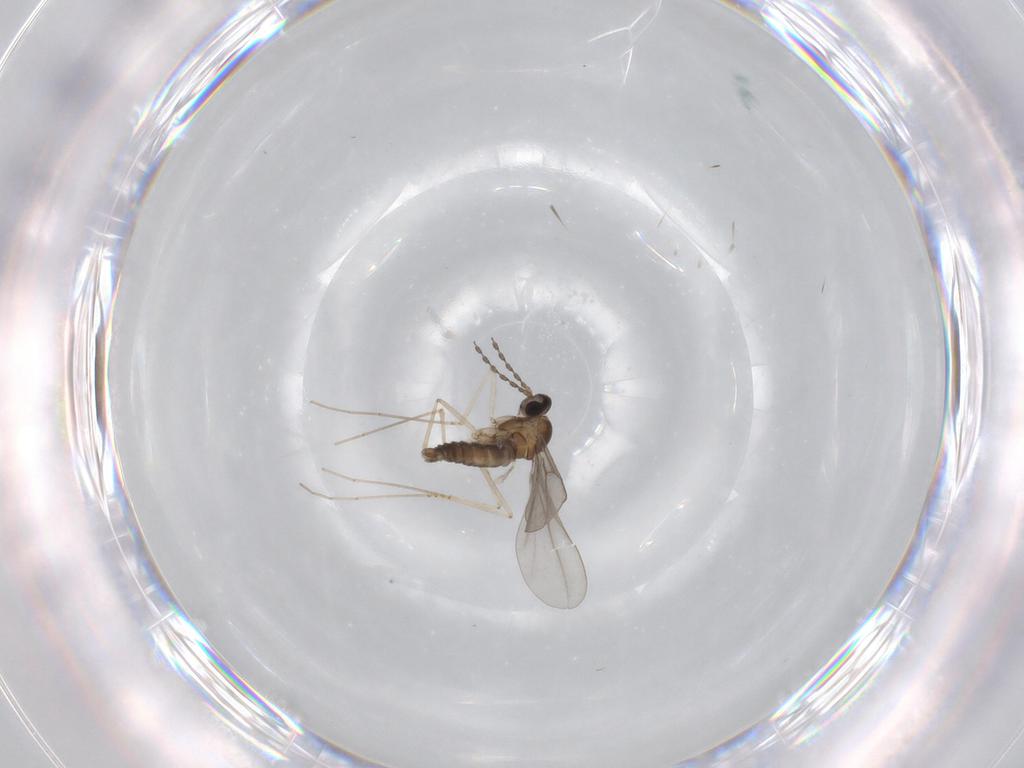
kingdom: Animalia
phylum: Arthropoda
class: Insecta
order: Diptera
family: Cecidomyiidae
